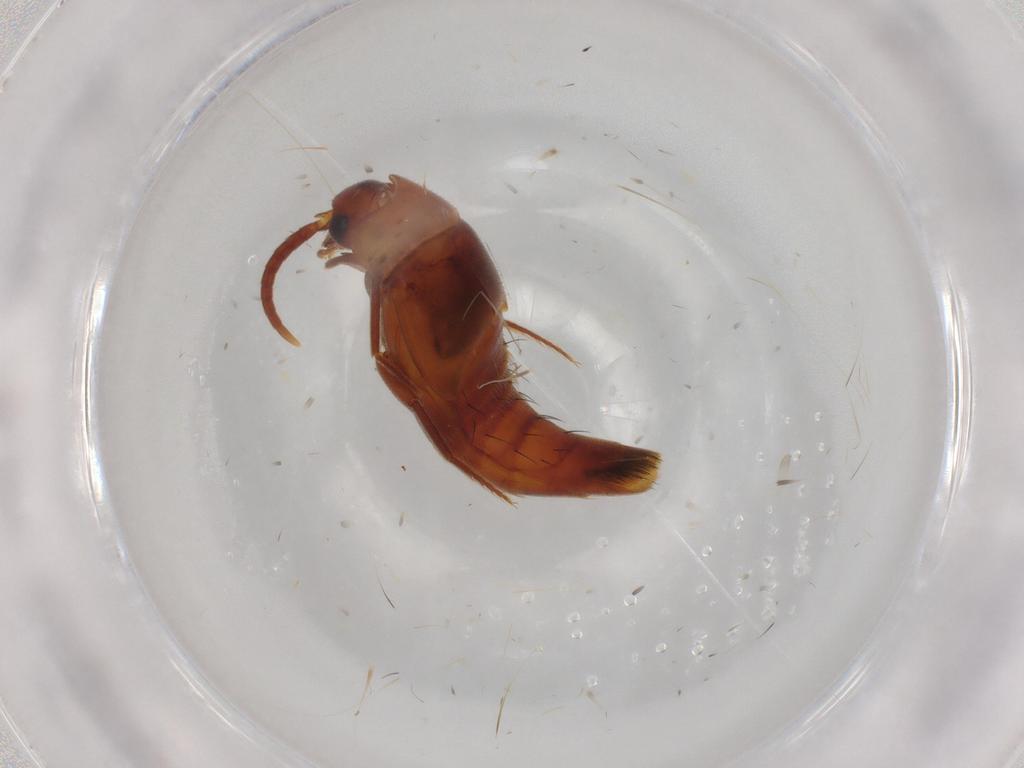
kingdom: Animalia
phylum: Arthropoda
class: Insecta
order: Coleoptera
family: Staphylinidae
